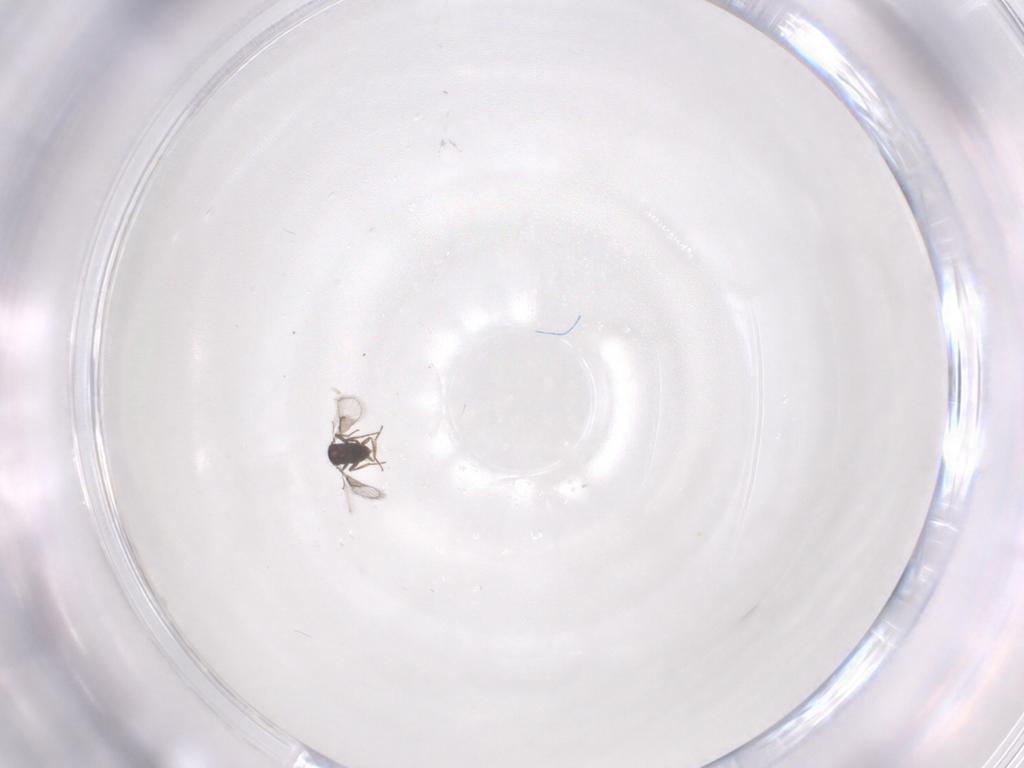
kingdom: Animalia
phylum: Arthropoda
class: Insecta
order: Hymenoptera
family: Trichogrammatidae
